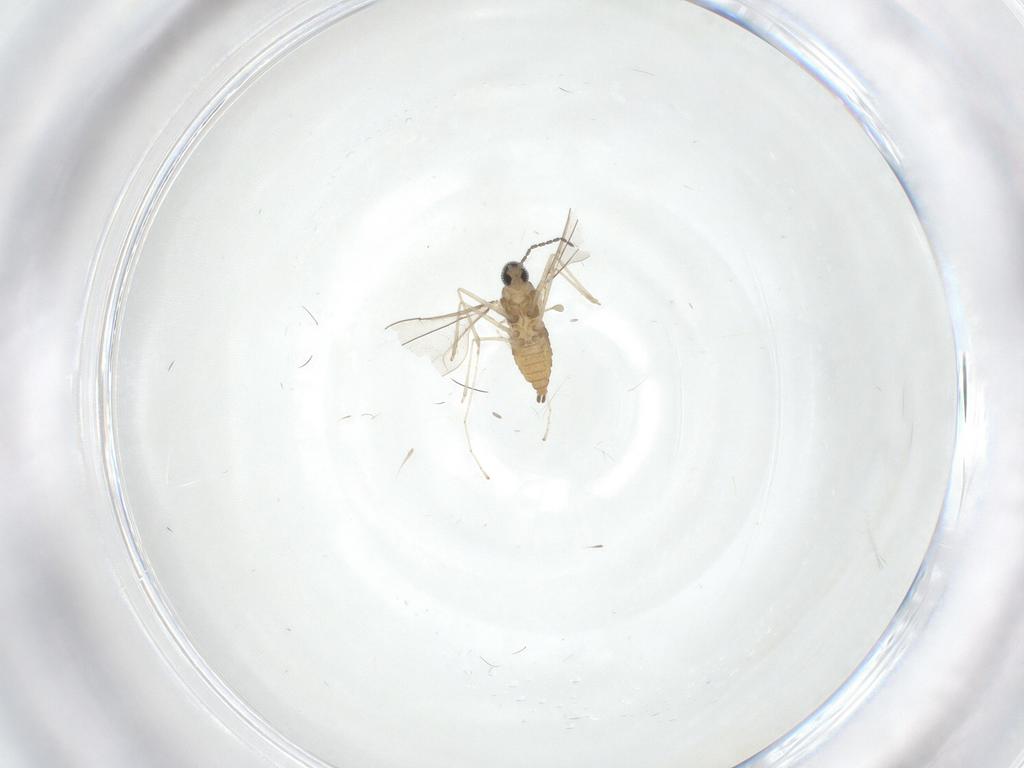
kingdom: Animalia
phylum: Arthropoda
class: Insecta
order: Diptera
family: Cecidomyiidae
